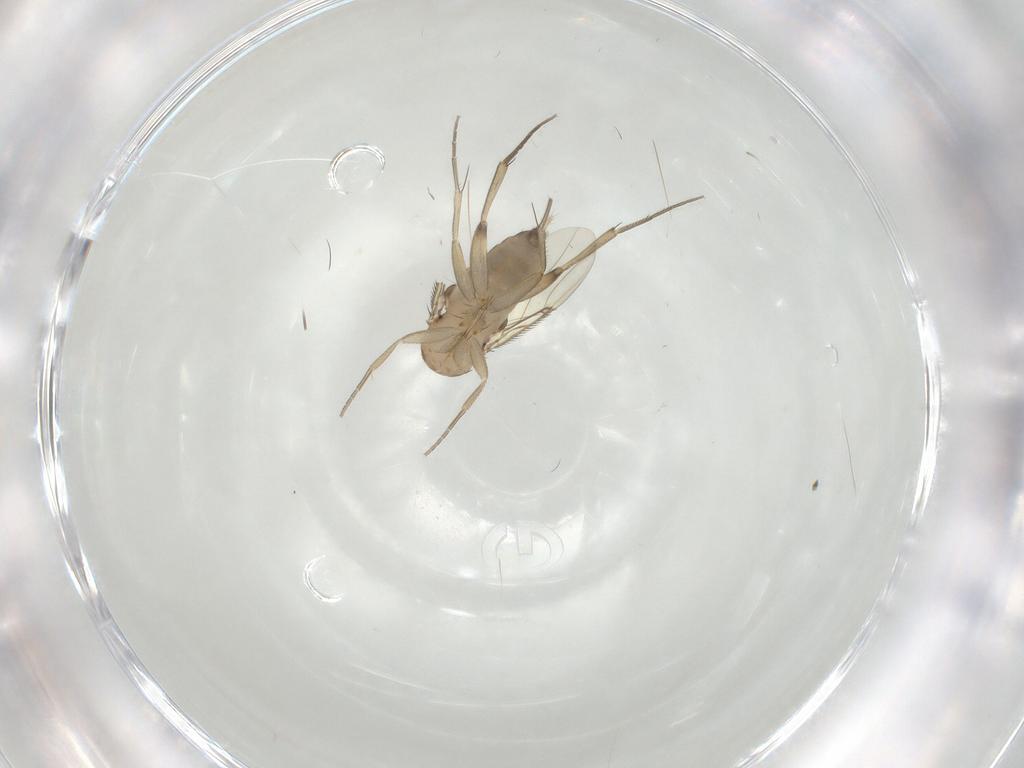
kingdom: Animalia
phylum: Arthropoda
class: Insecta
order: Diptera
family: Phoridae
